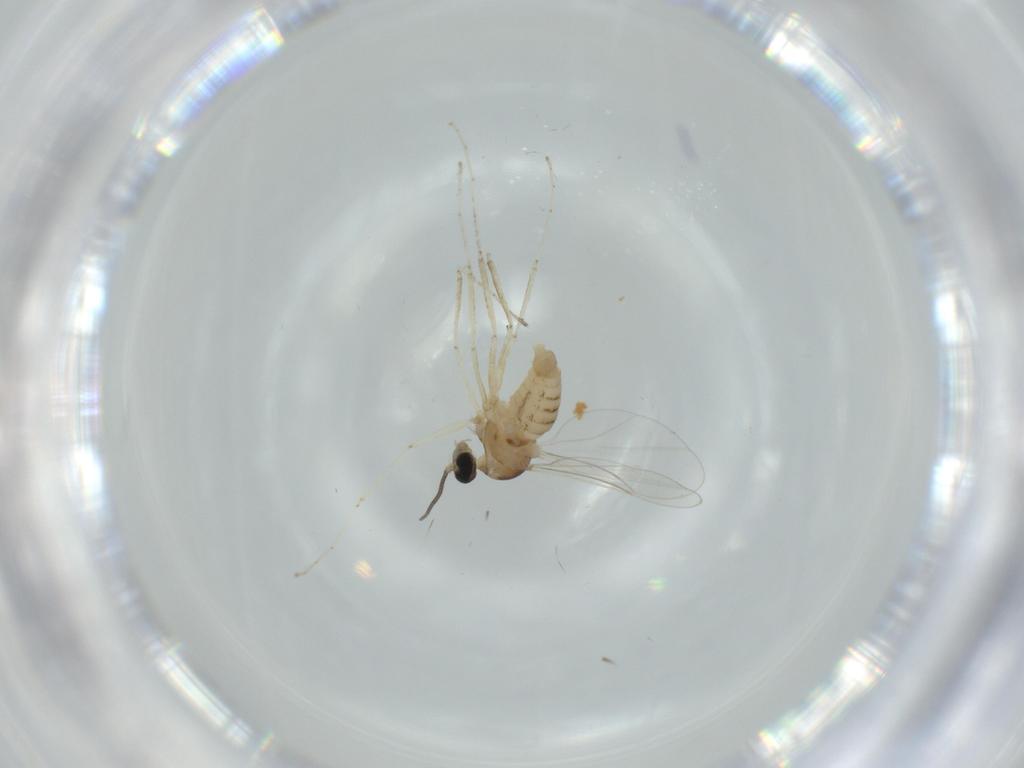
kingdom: Animalia
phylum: Arthropoda
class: Insecta
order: Diptera
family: Cecidomyiidae
